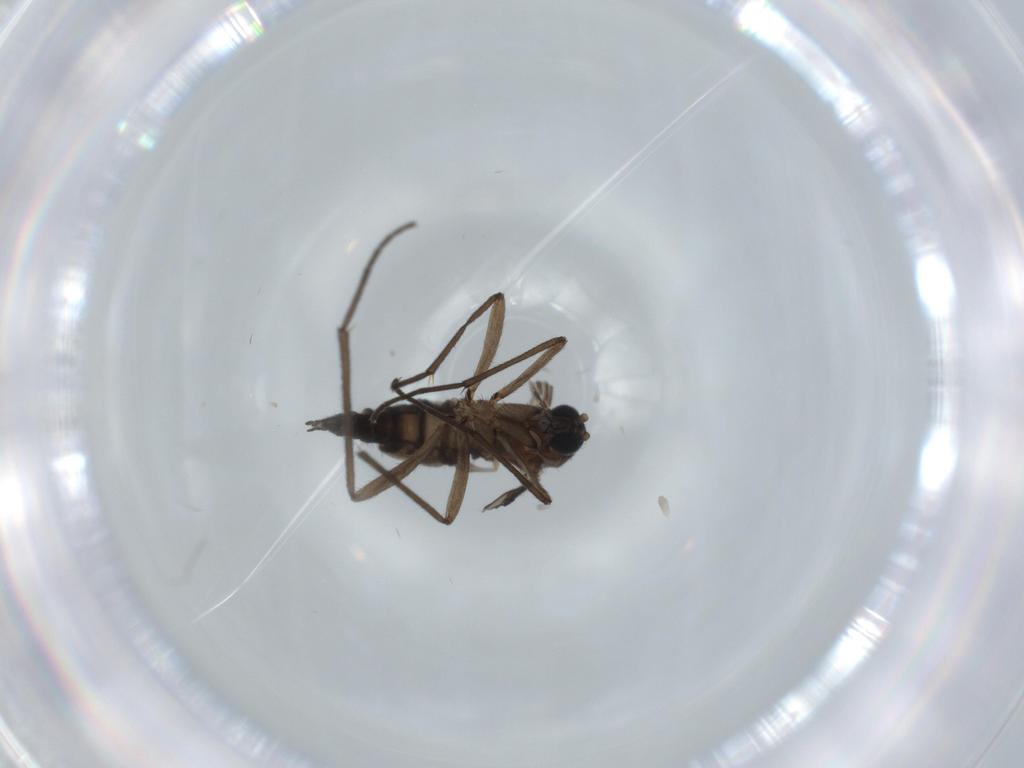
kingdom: Animalia
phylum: Arthropoda
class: Insecta
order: Diptera
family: Sciaridae
